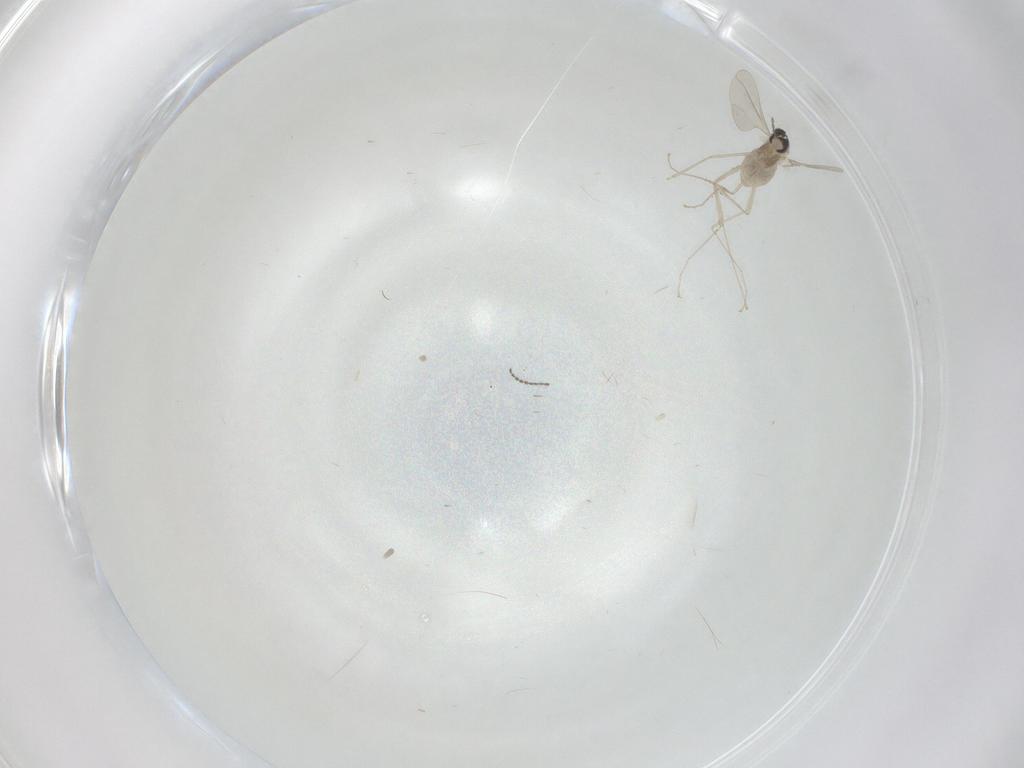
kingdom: Animalia
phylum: Arthropoda
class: Insecta
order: Diptera
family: Cecidomyiidae
